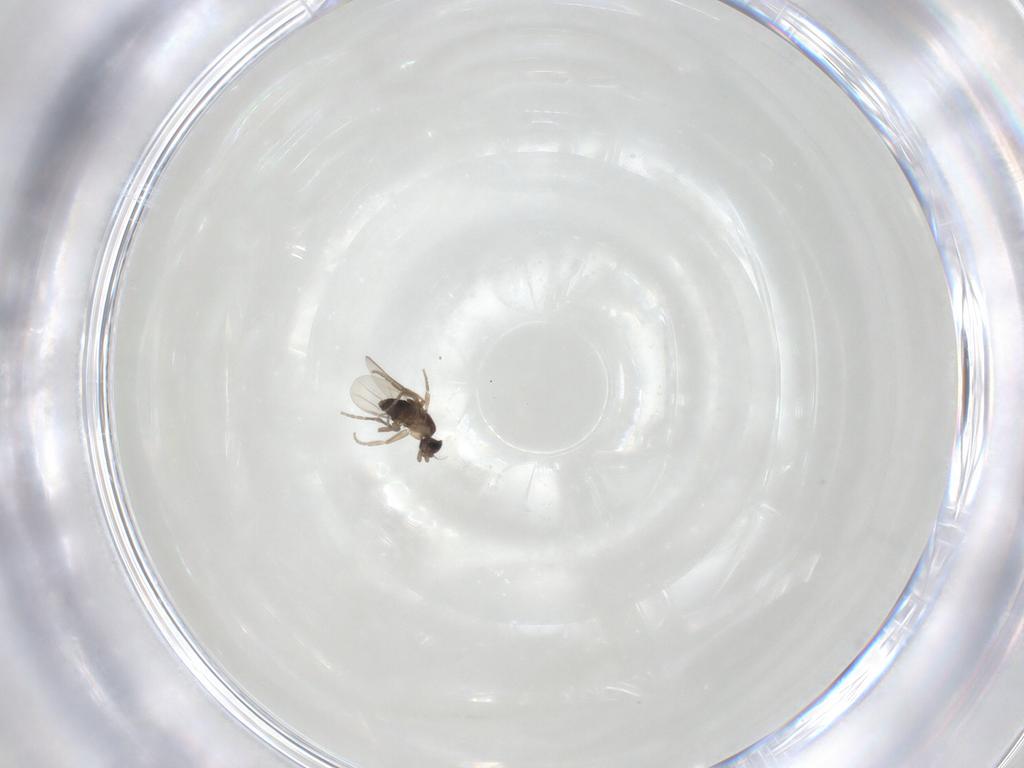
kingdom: Animalia
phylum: Arthropoda
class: Insecta
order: Diptera
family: Phoridae
